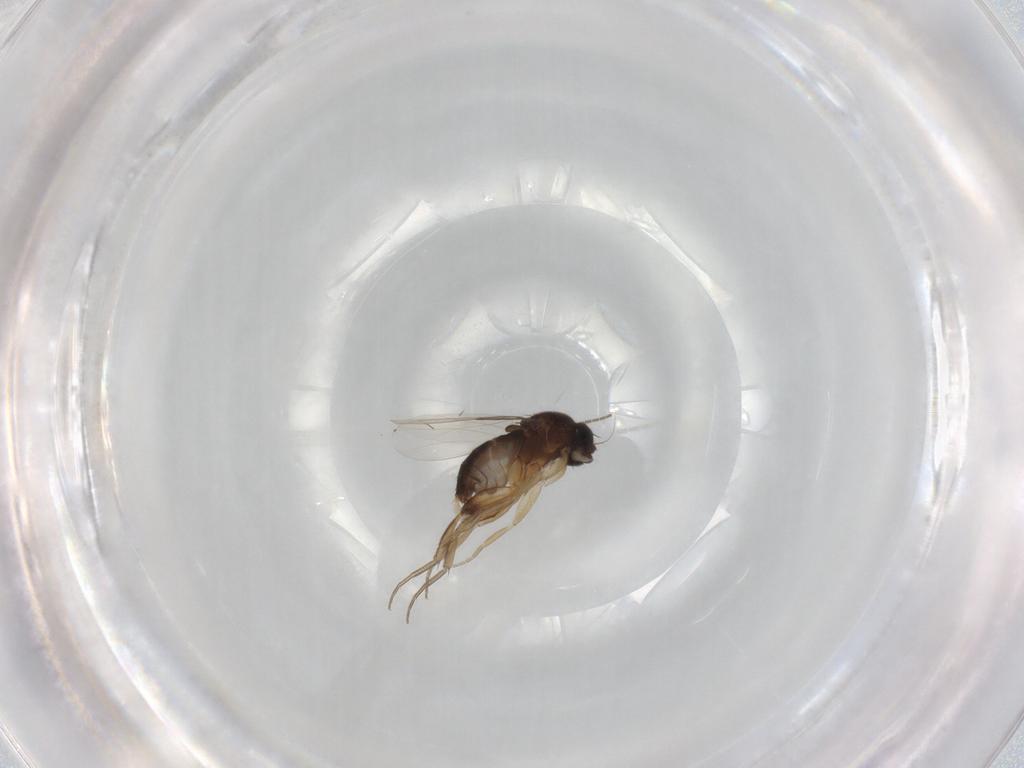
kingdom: Animalia
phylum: Arthropoda
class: Insecta
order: Diptera
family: Phoridae
